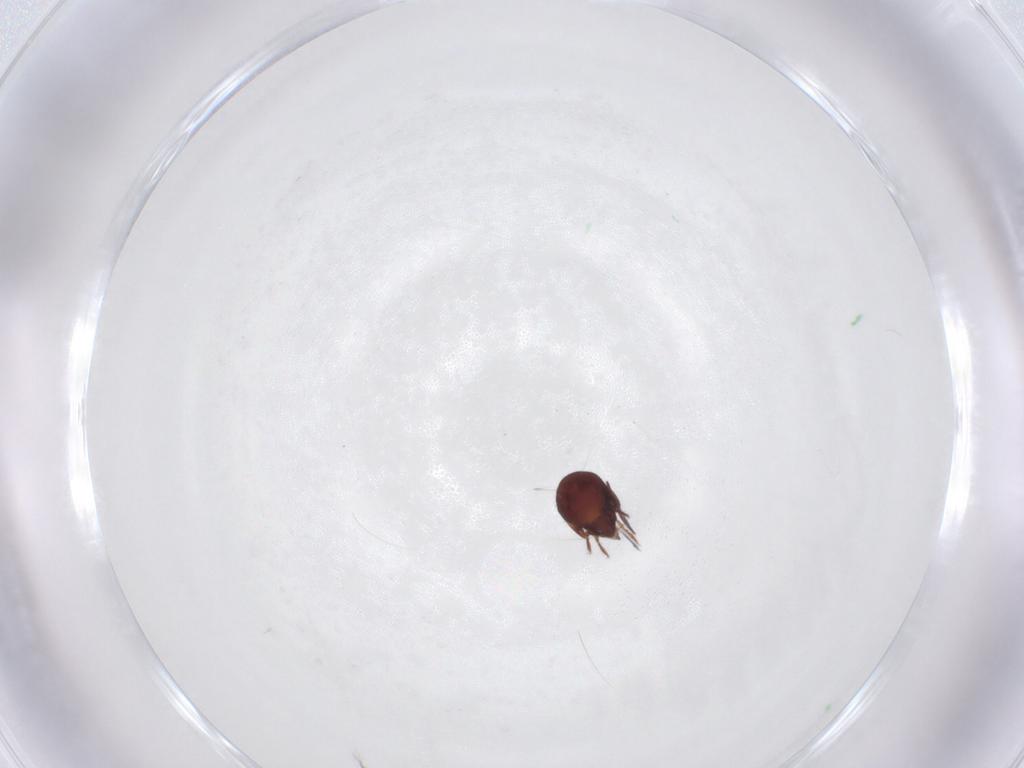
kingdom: Animalia
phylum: Arthropoda
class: Arachnida
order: Sarcoptiformes
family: Humerobatidae
